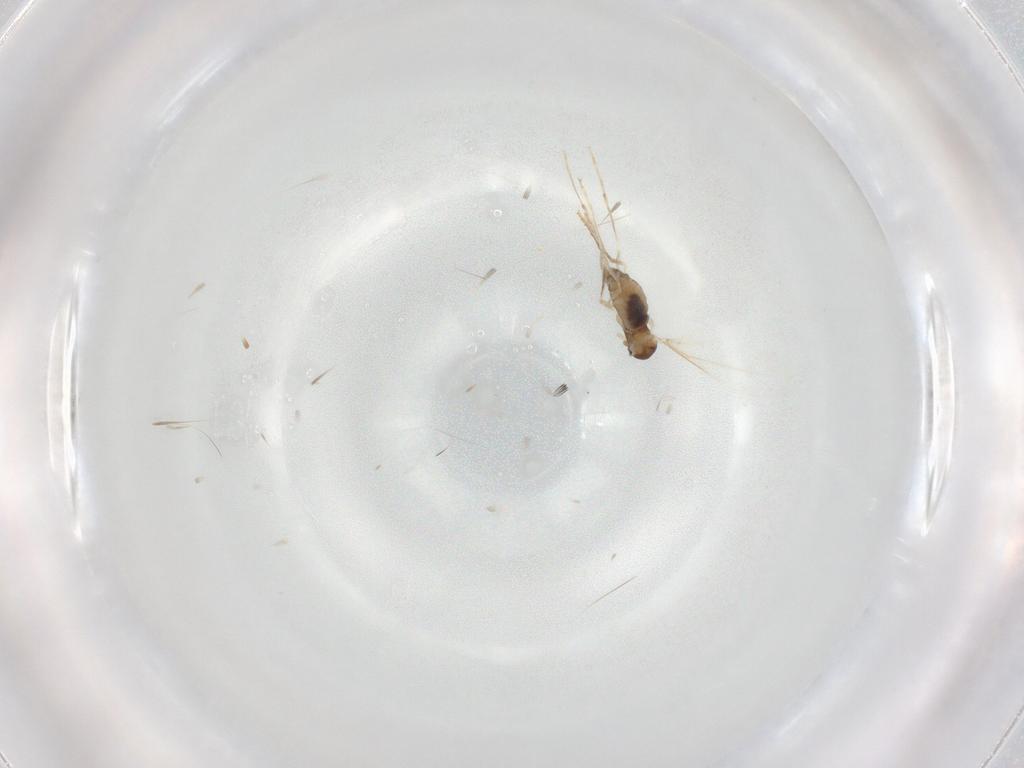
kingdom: Animalia
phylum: Arthropoda
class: Insecta
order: Diptera
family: Cecidomyiidae
